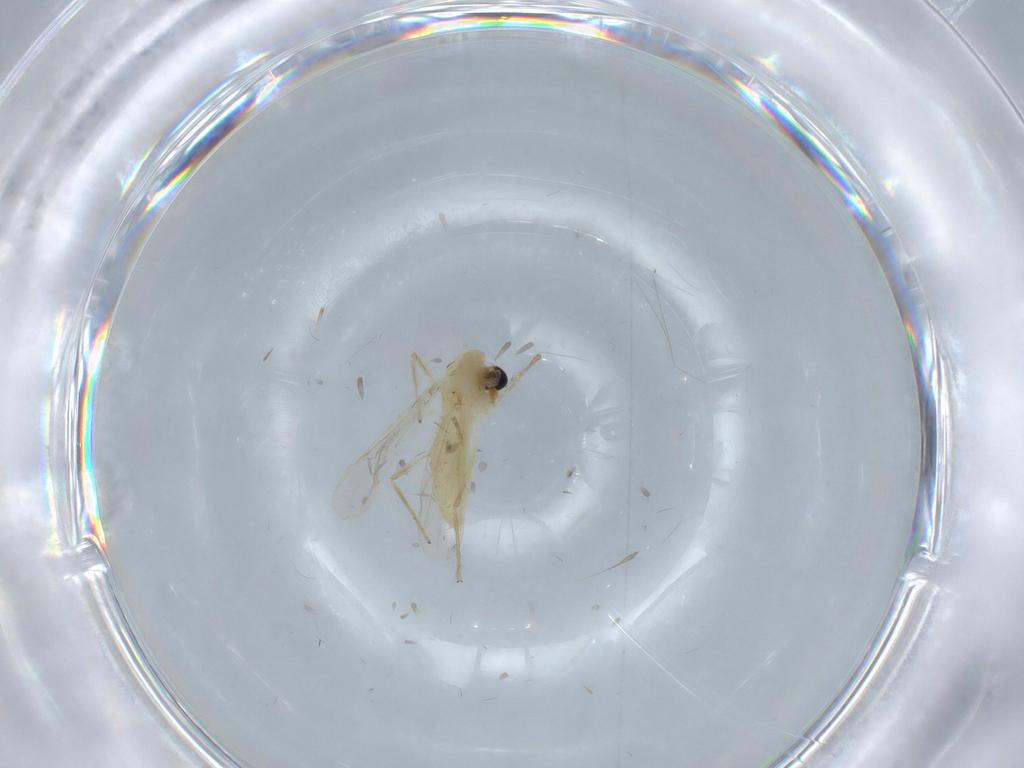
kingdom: Animalia
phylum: Arthropoda
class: Insecta
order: Diptera
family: Chironomidae
